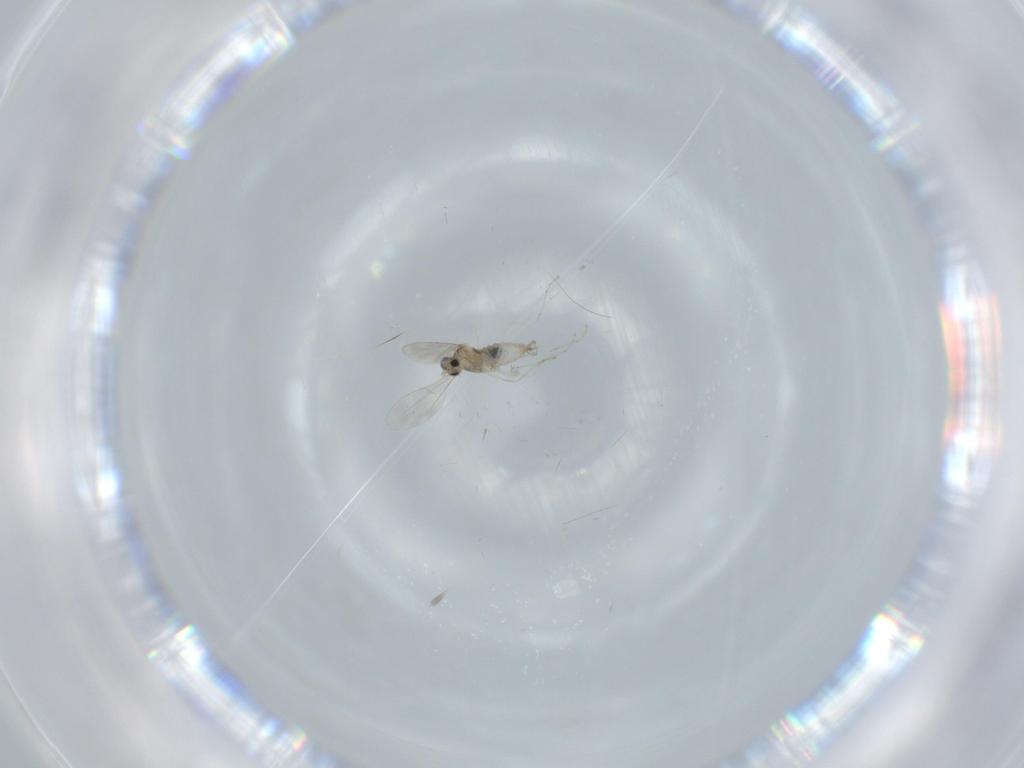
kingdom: Animalia
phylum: Arthropoda
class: Insecta
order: Diptera
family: Cecidomyiidae
